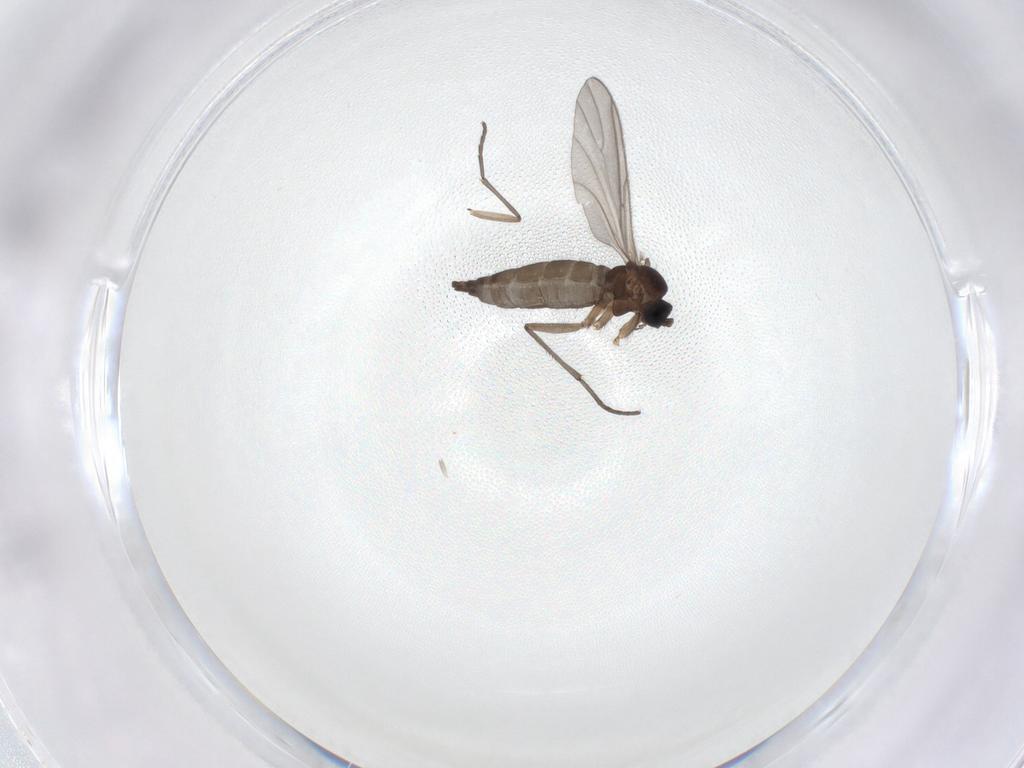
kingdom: Animalia
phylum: Arthropoda
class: Insecta
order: Diptera
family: Sciaridae
